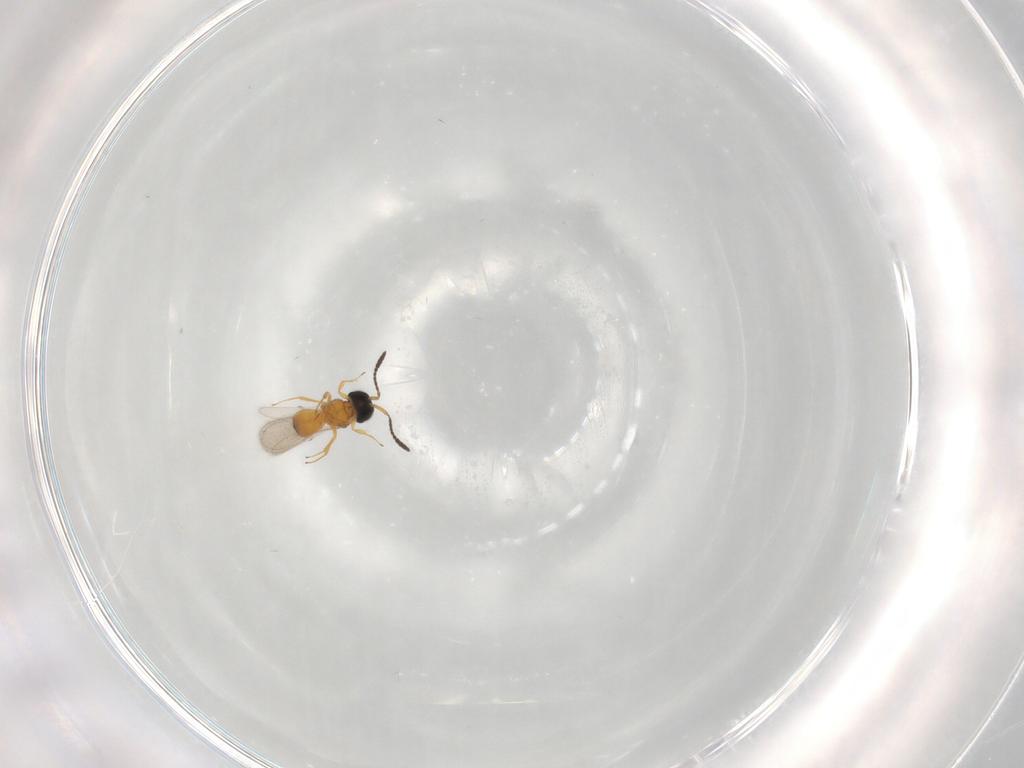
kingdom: Animalia
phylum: Arthropoda
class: Insecta
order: Hymenoptera
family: Scelionidae
